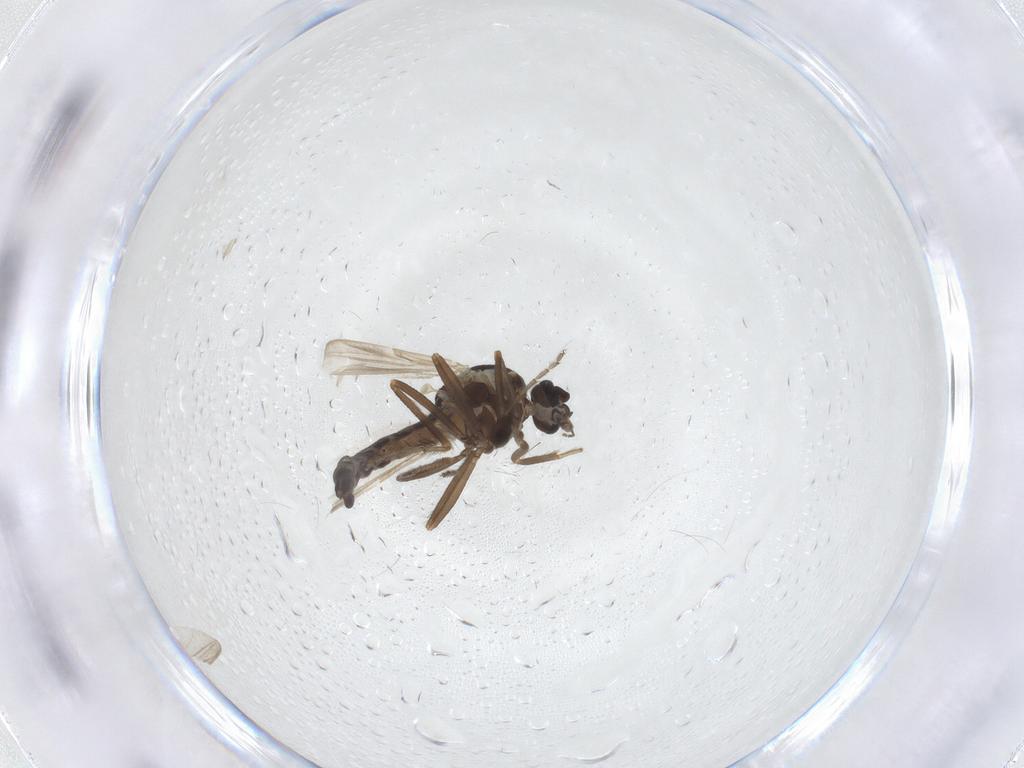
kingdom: Animalia
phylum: Arthropoda
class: Insecta
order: Diptera
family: Ceratopogonidae
